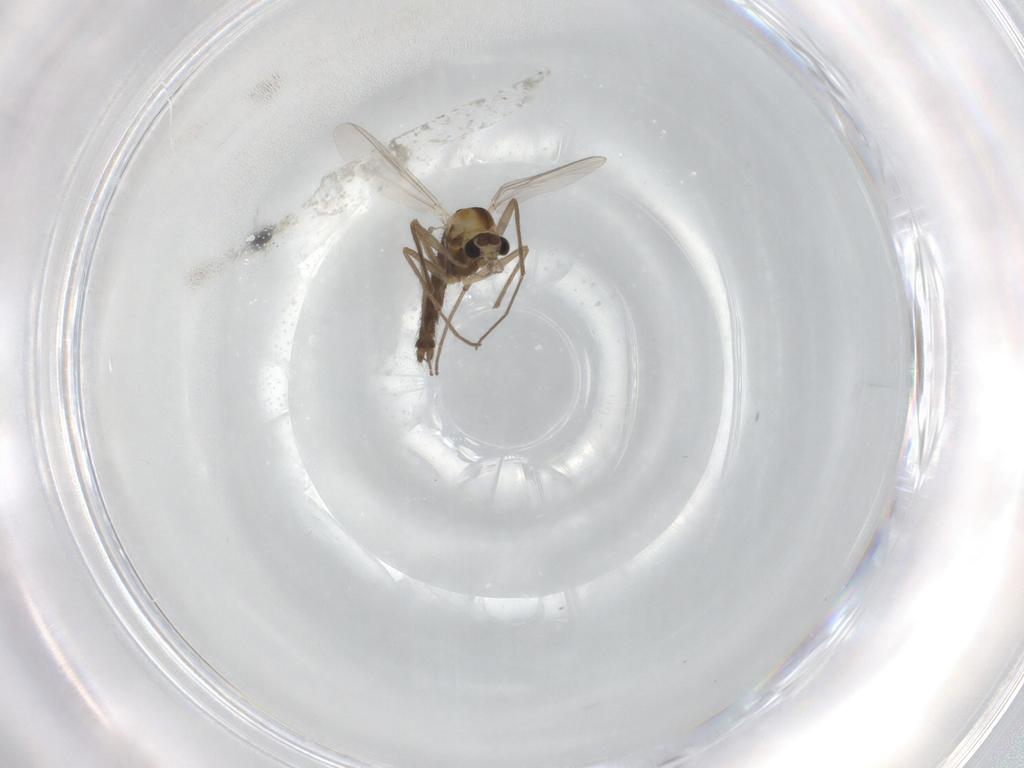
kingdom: Animalia
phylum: Arthropoda
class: Insecta
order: Diptera
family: Chironomidae
